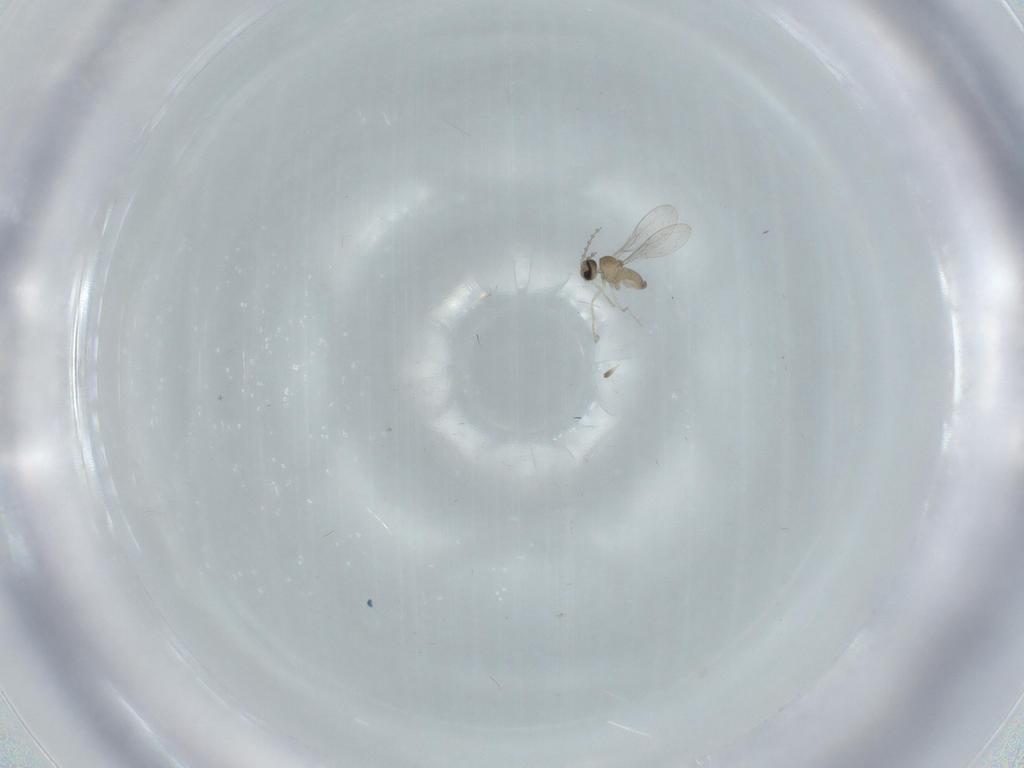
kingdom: Animalia
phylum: Arthropoda
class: Insecta
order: Diptera
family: Cecidomyiidae
